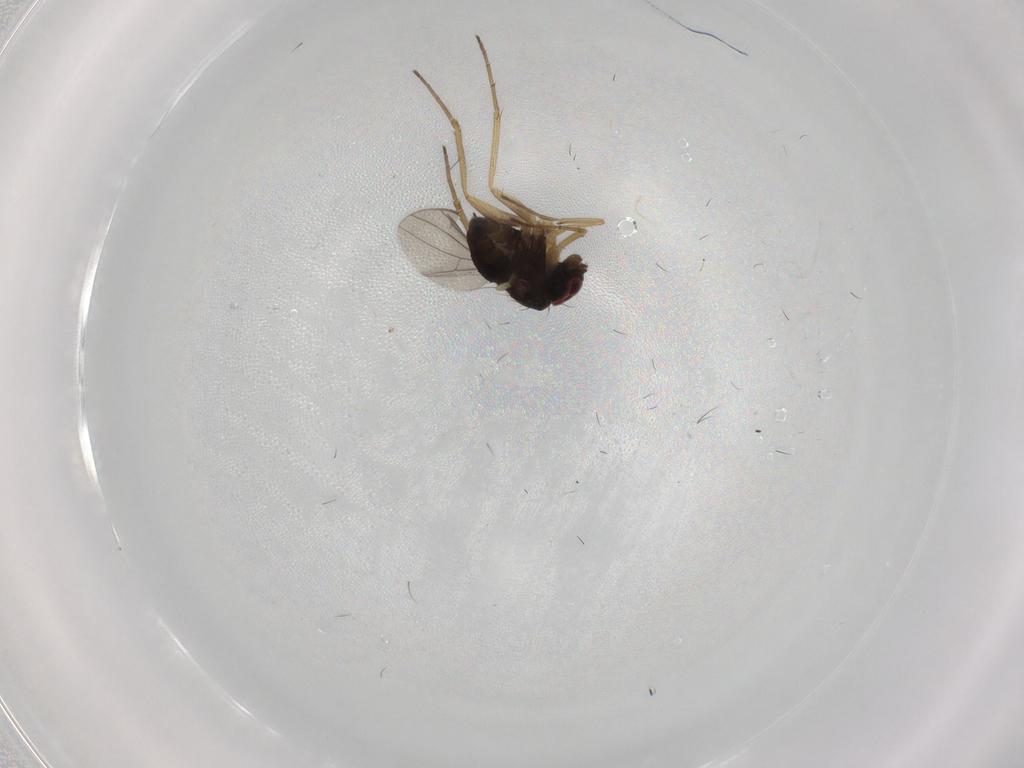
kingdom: Animalia
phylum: Arthropoda
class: Insecta
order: Diptera
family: Dolichopodidae
